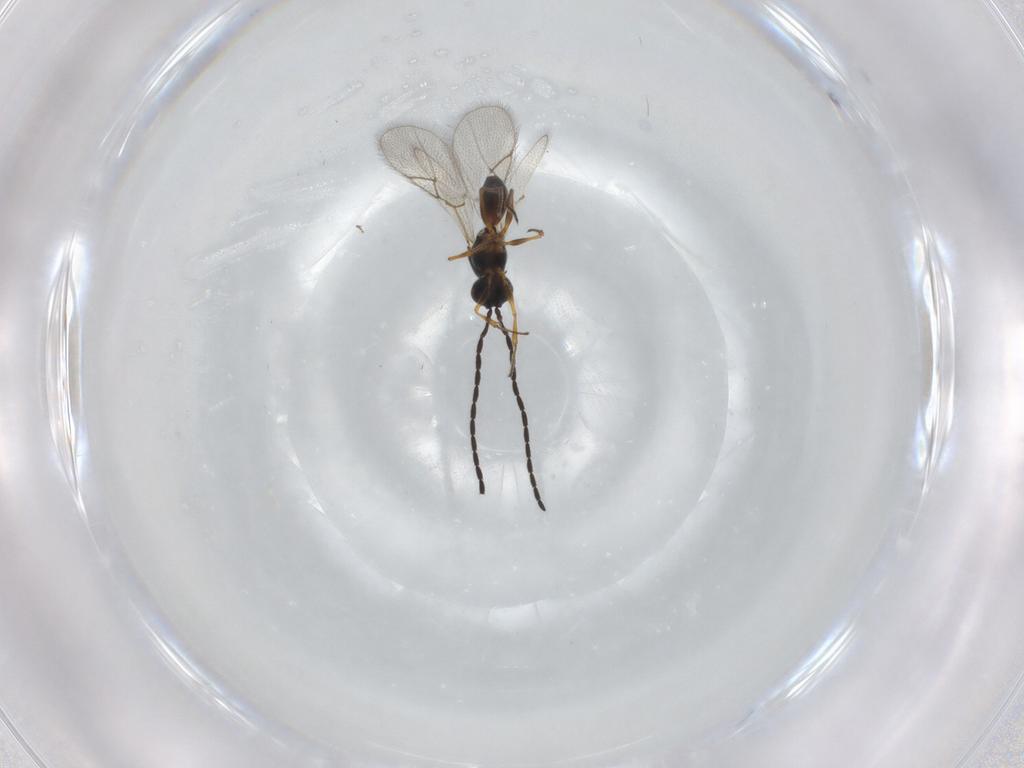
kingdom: Animalia
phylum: Arthropoda
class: Insecta
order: Hymenoptera
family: Figitidae
